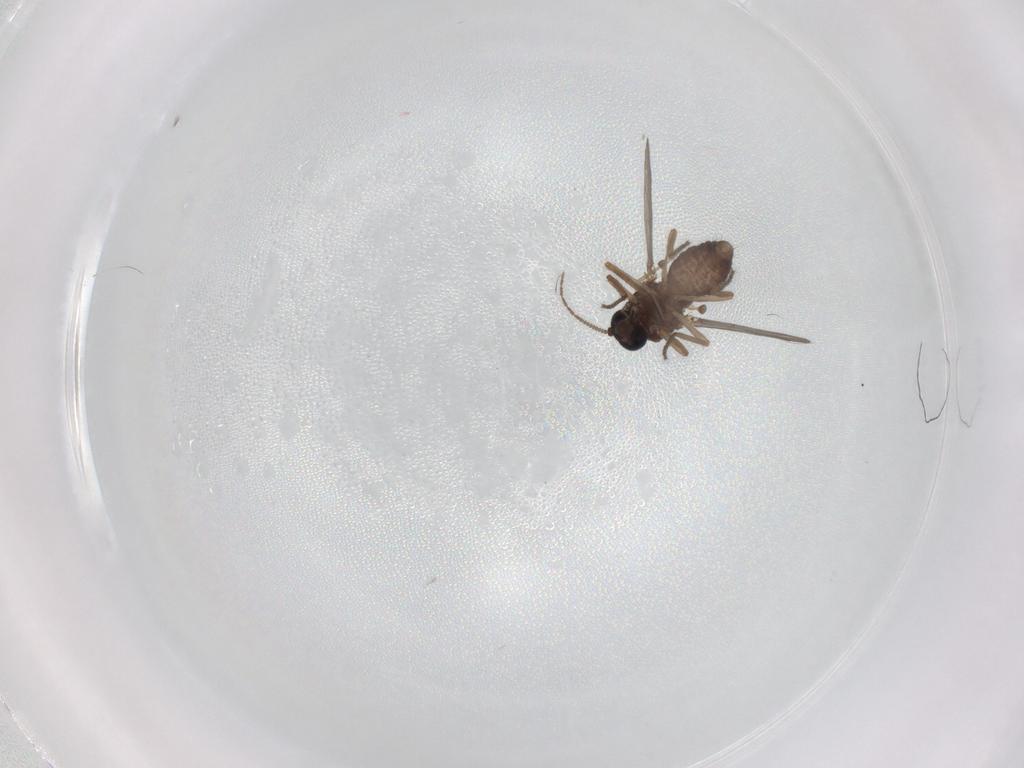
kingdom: Animalia
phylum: Arthropoda
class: Insecta
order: Diptera
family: Ceratopogonidae
